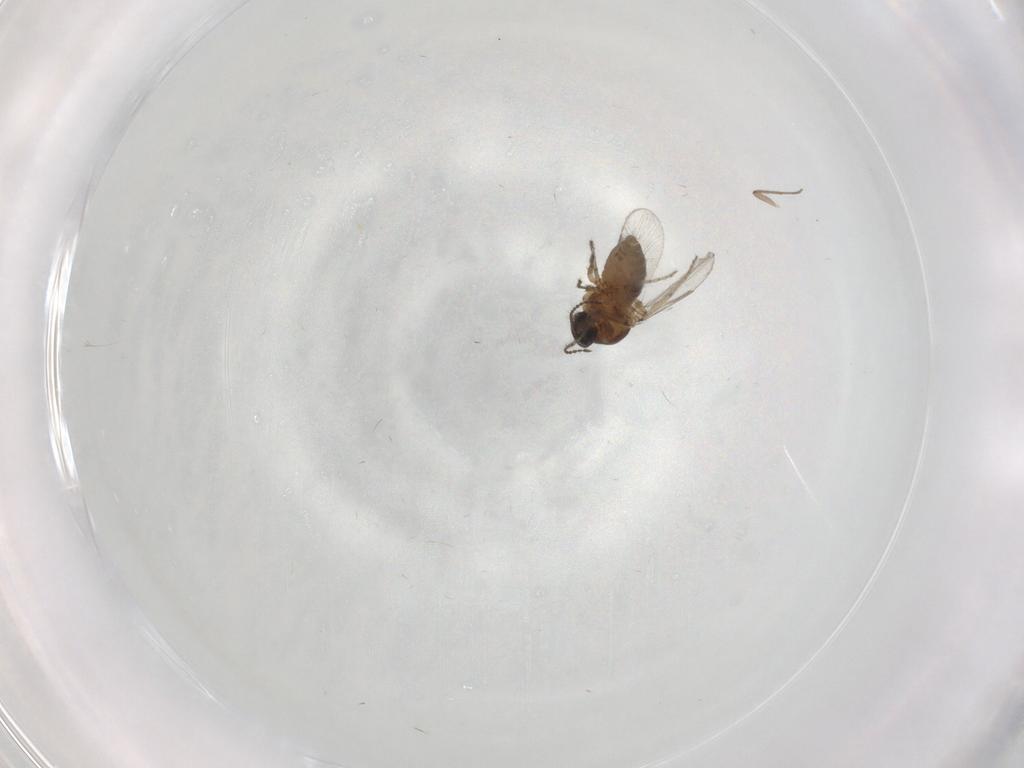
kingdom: Animalia
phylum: Arthropoda
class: Insecta
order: Diptera
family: Ceratopogonidae
